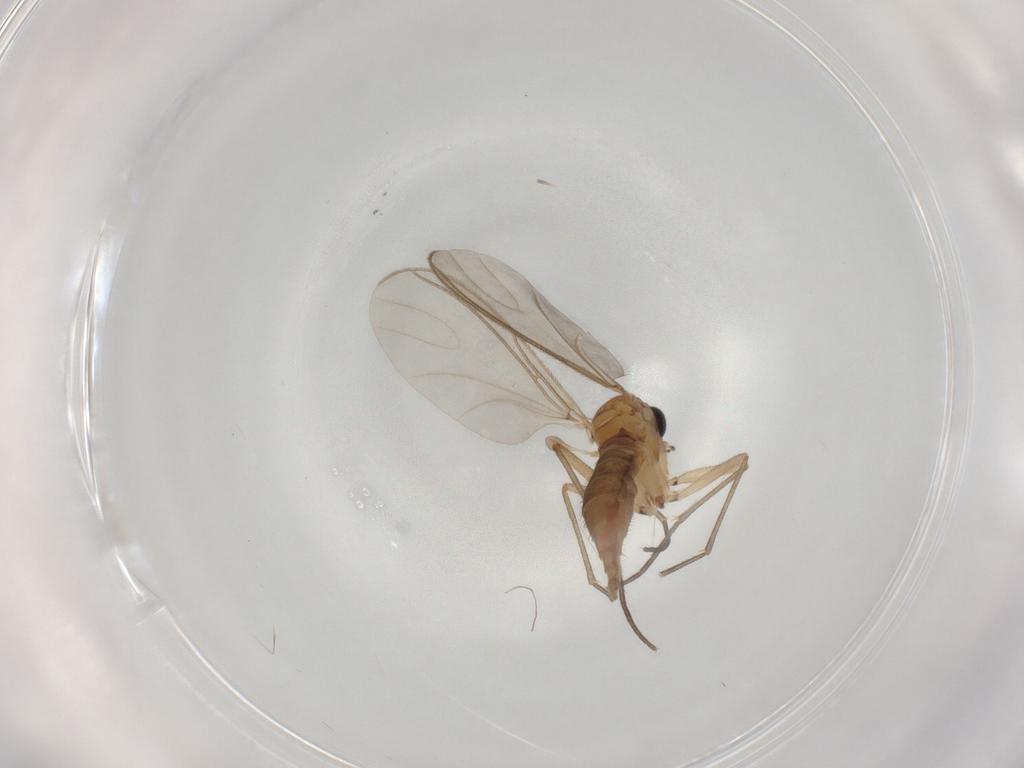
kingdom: Animalia
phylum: Arthropoda
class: Insecta
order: Diptera
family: Sciaridae
